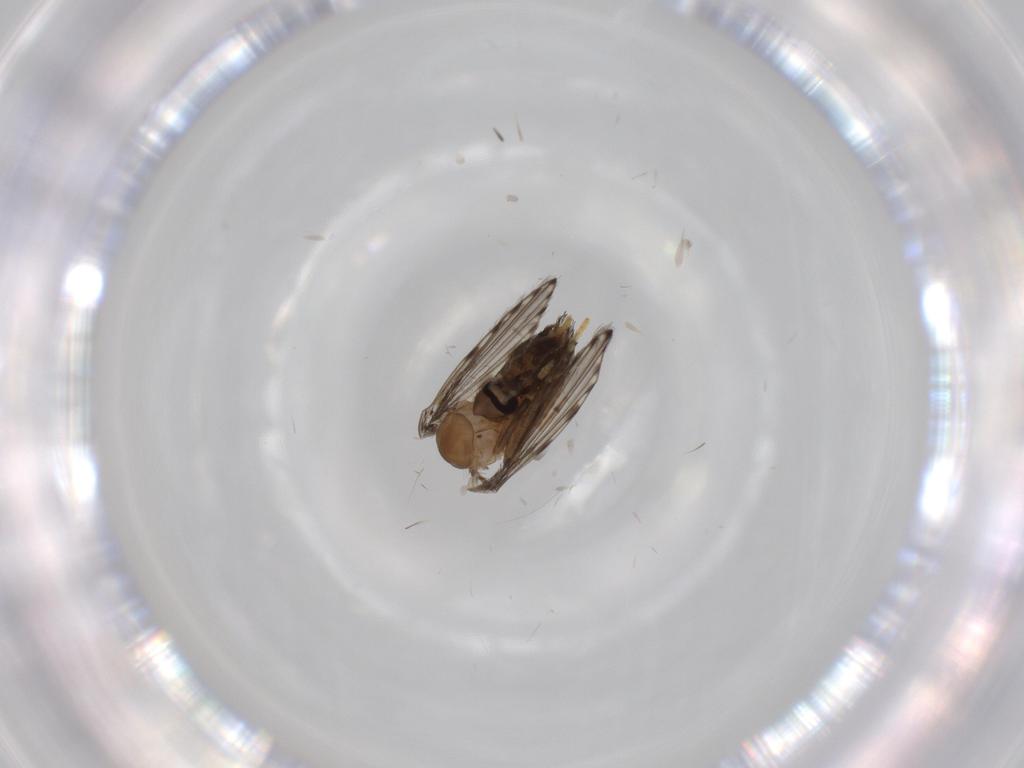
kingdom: Animalia
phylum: Arthropoda
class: Insecta
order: Diptera
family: Psychodidae
